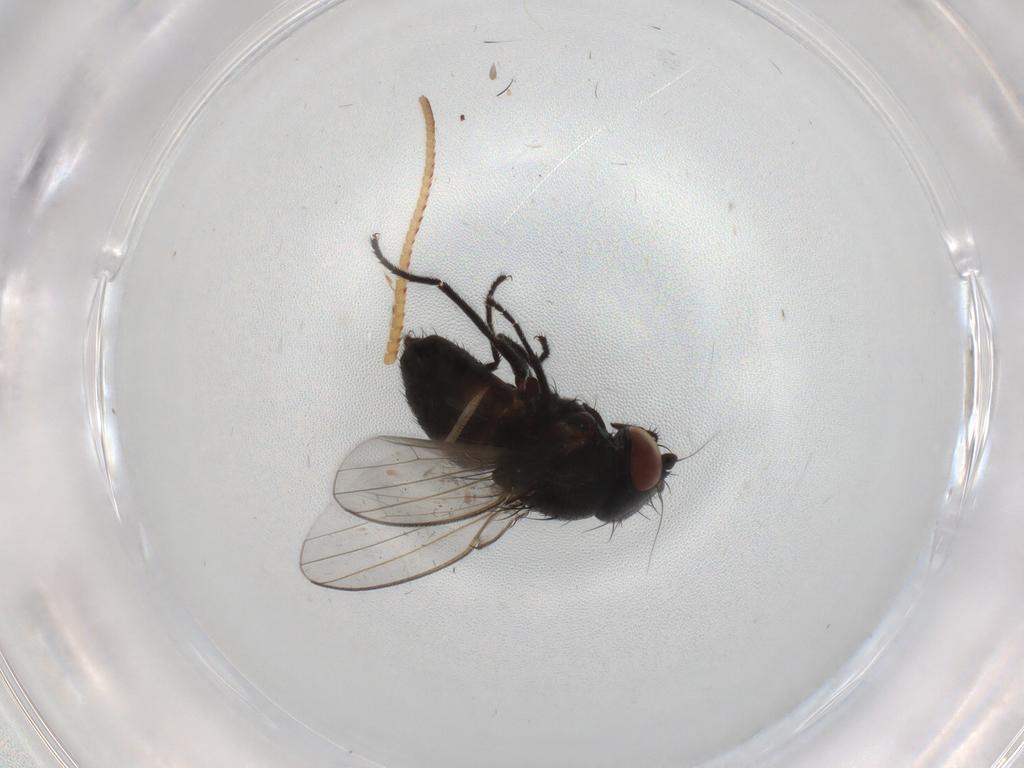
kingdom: Animalia
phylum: Arthropoda
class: Insecta
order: Diptera
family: Milichiidae
